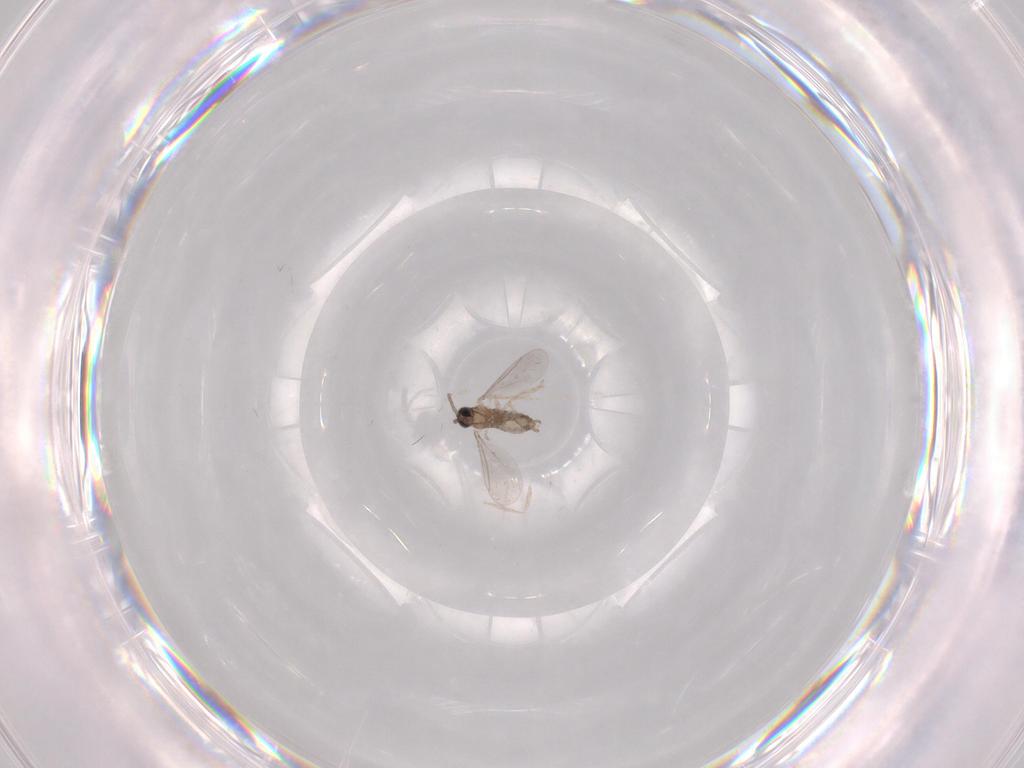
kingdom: Animalia
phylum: Arthropoda
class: Insecta
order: Diptera
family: Cecidomyiidae
